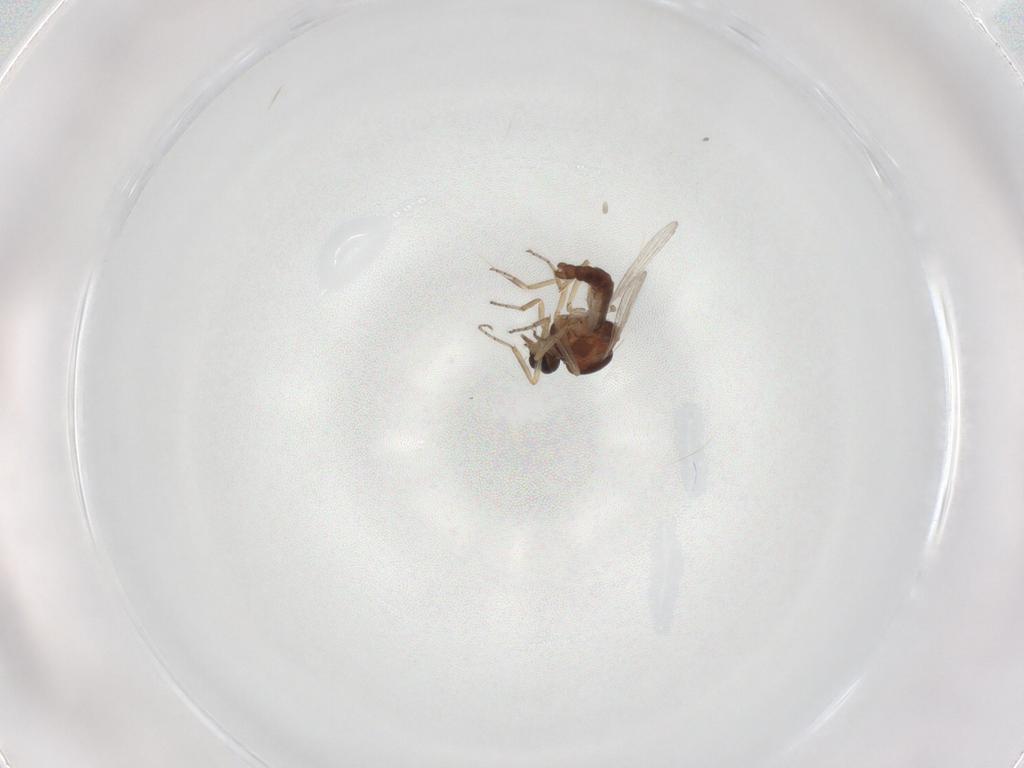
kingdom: Animalia
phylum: Arthropoda
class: Insecta
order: Diptera
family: Ceratopogonidae
